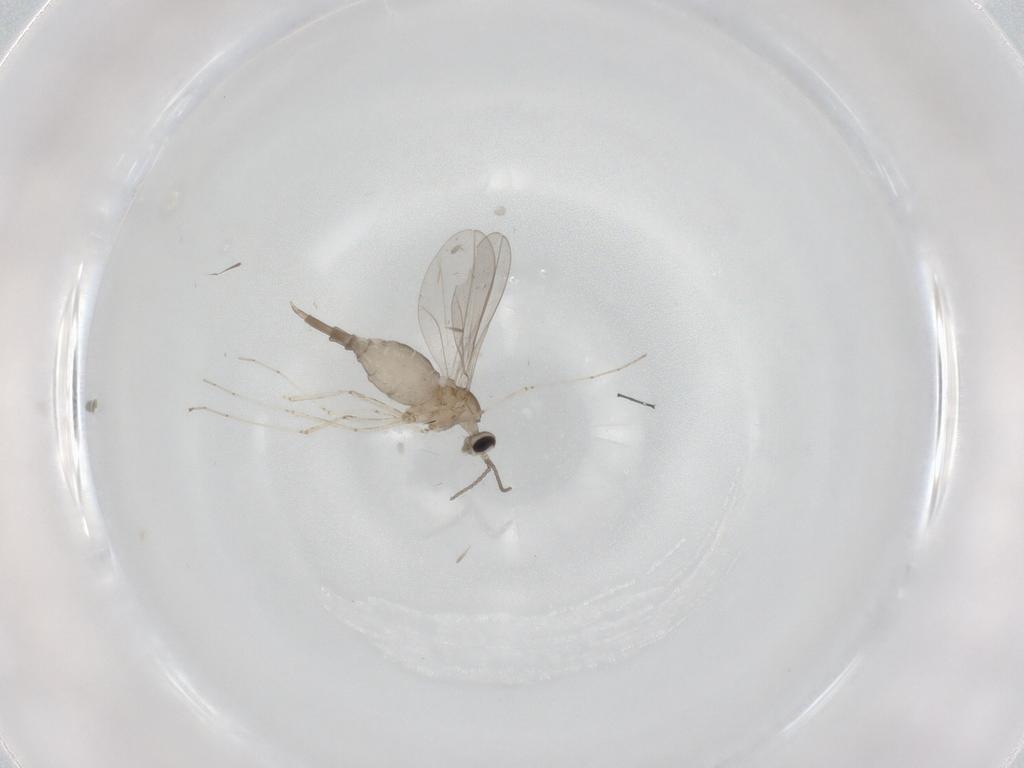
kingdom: Animalia
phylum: Arthropoda
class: Insecta
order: Diptera
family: Cecidomyiidae
